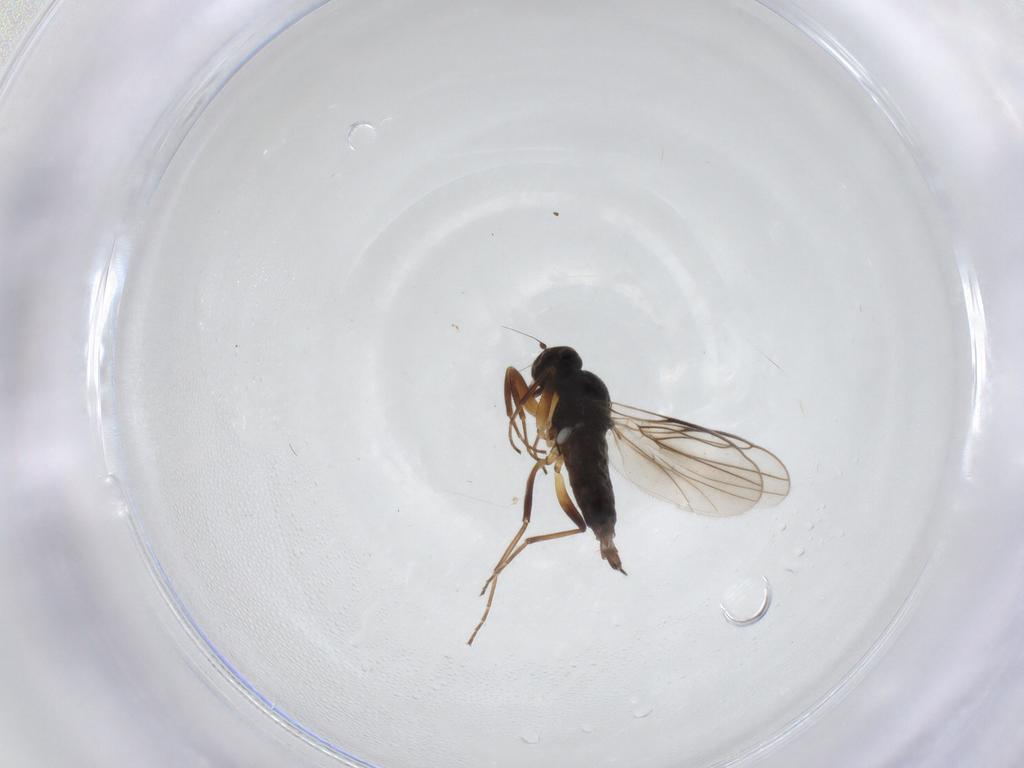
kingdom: Animalia
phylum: Arthropoda
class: Insecta
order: Diptera
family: Hybotidae
